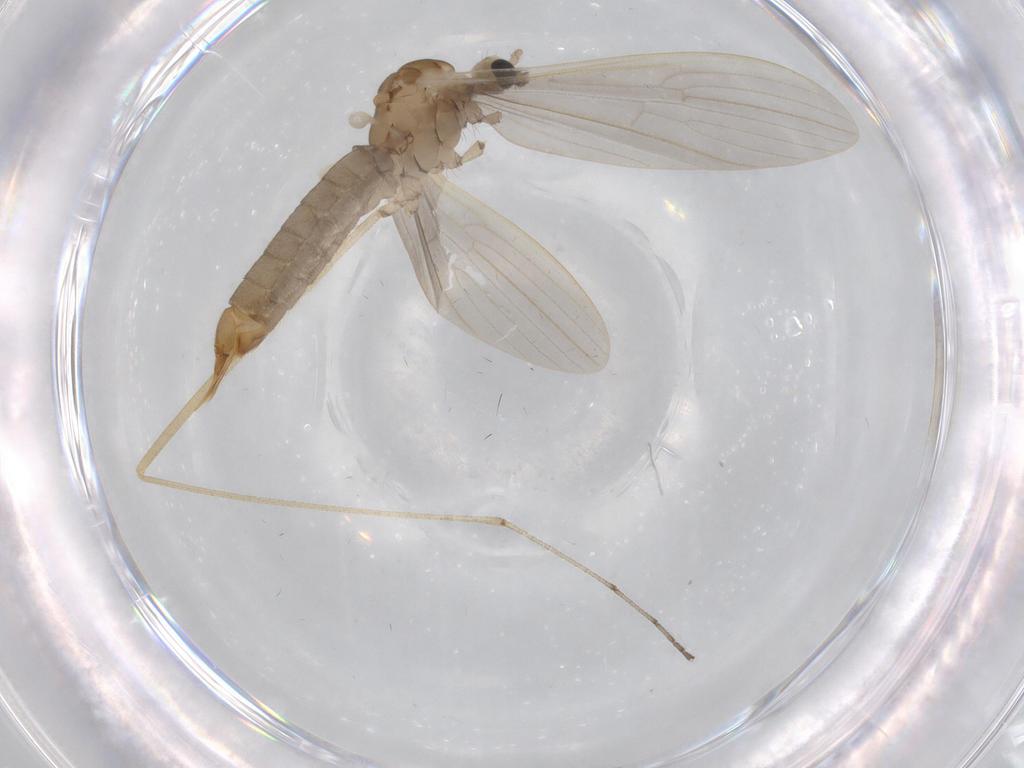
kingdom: Animalia
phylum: Arthropoda
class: Insecta
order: Diptera
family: Limoniidae
